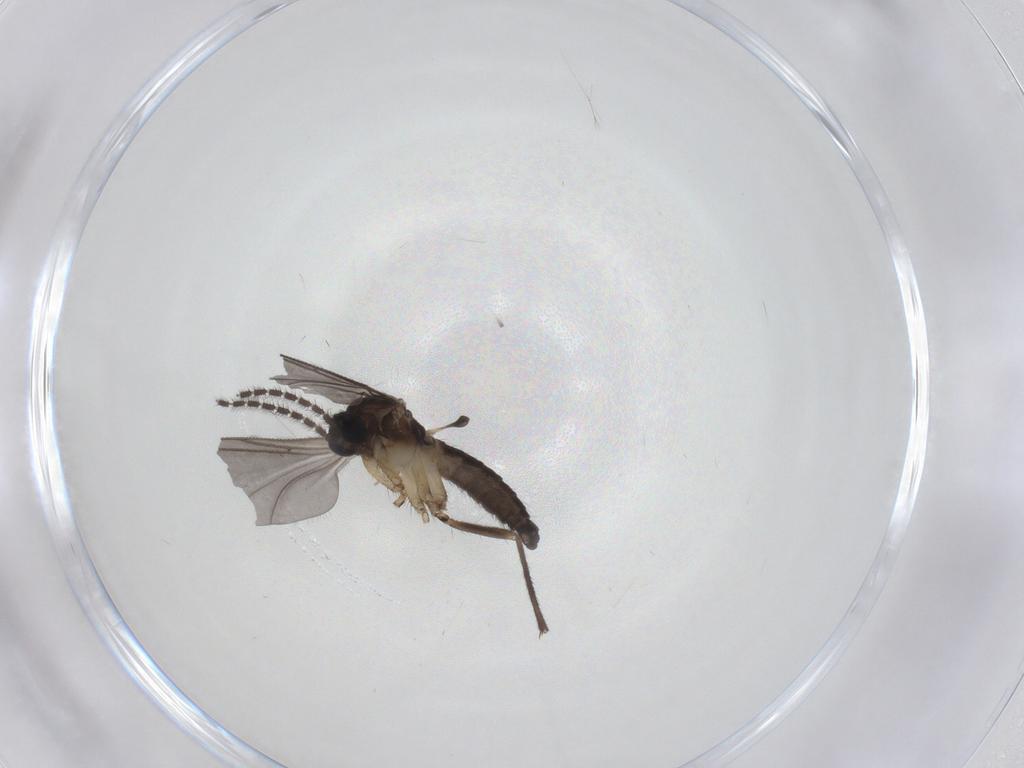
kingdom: Animalia
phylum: Arthropoda
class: Insecta
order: Diptera
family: Sciaridae
